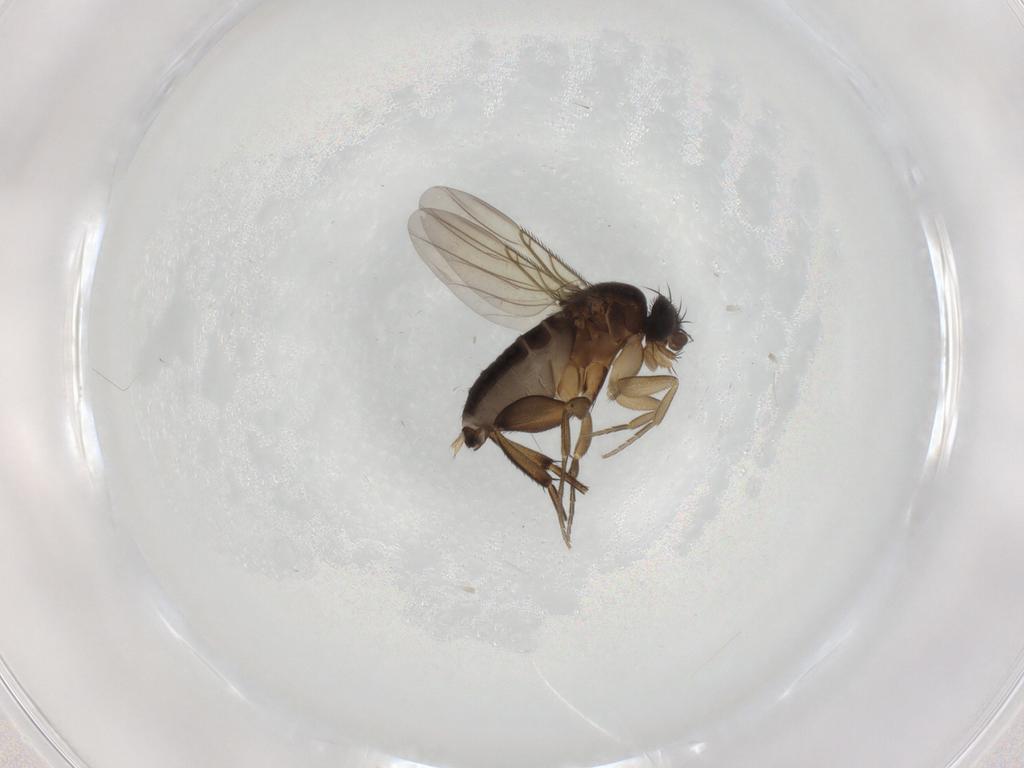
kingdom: Animalia
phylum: Arthropoda
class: Insecta
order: Diptera
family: Phoridae
